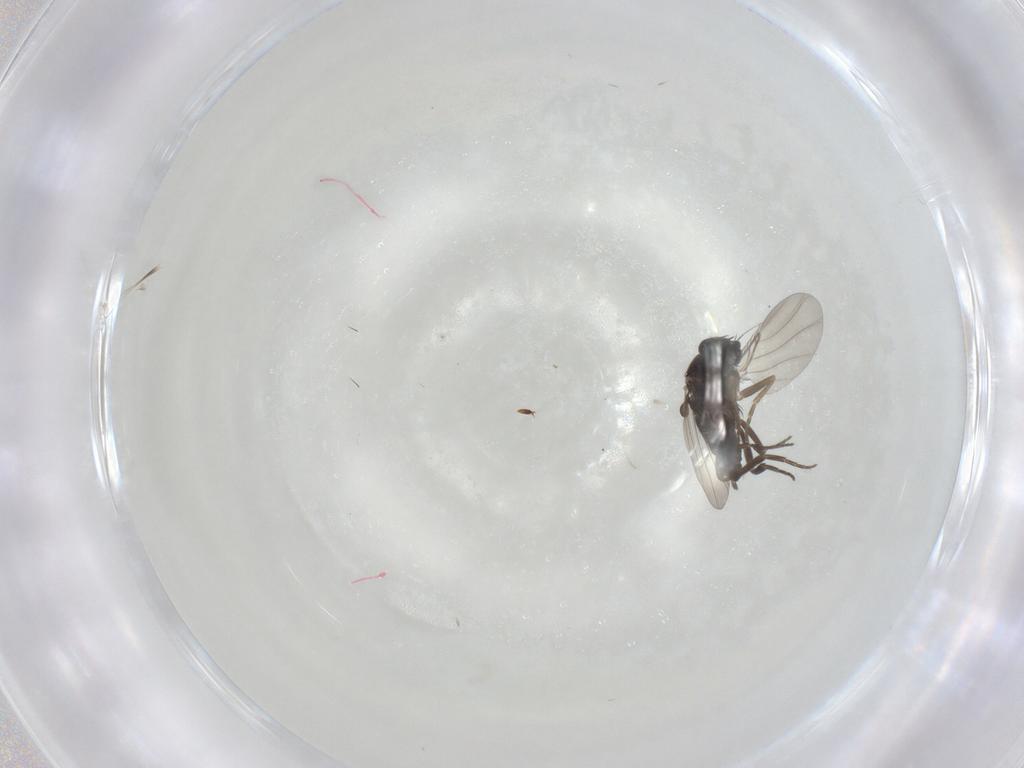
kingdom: Animalia
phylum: Arthropoda
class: Insecta
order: Diptera
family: Phoridae
